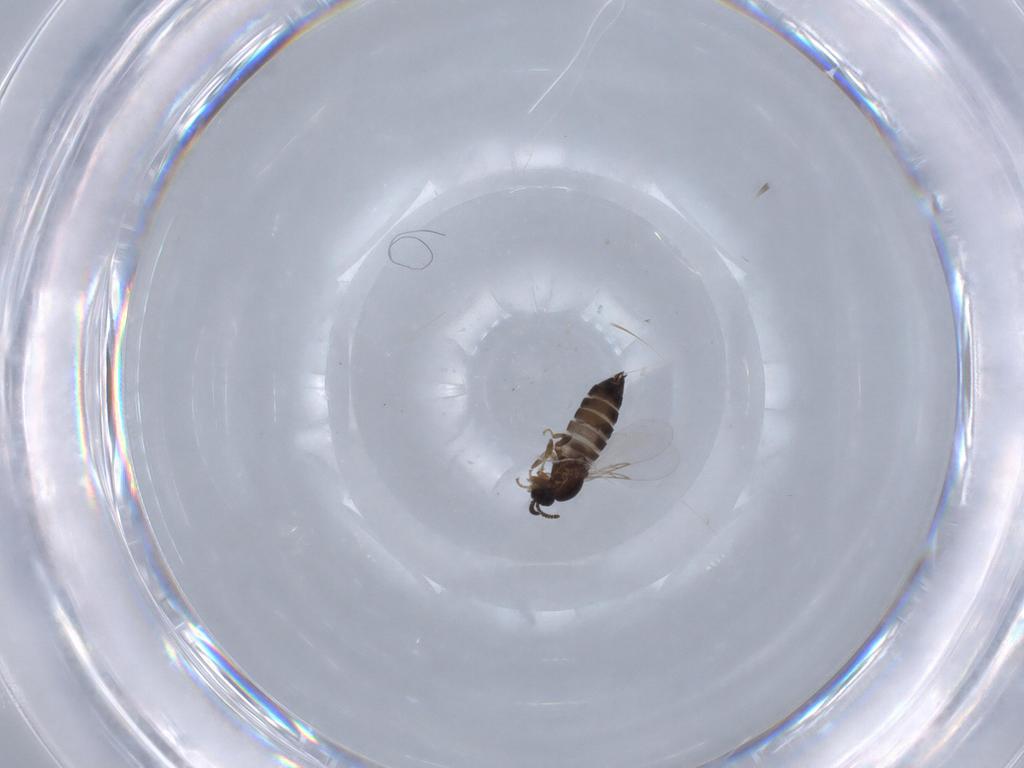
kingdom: Animalia
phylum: Arthropoda
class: Insecta
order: Diptera
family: Scatopsidae
